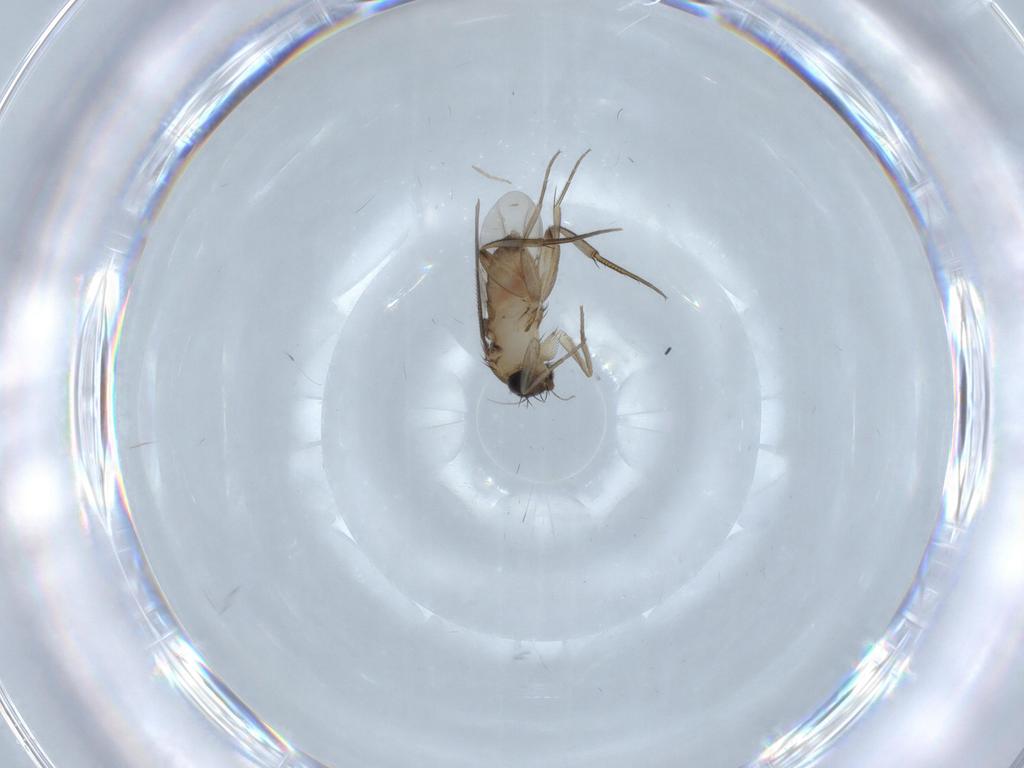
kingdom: Animalia
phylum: Arthropoda
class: Insecta
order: Diptera
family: Phoridae
